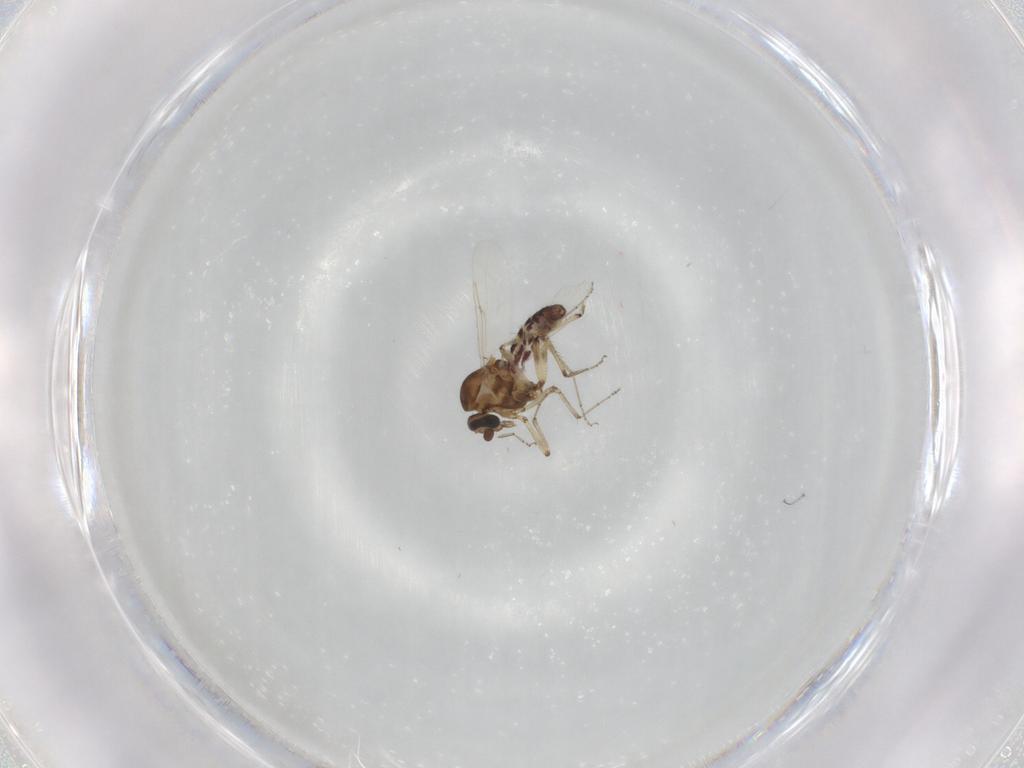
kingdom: Animalia
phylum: Arthropoda
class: Insecta
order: Diptera
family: Ceratopogonidae
